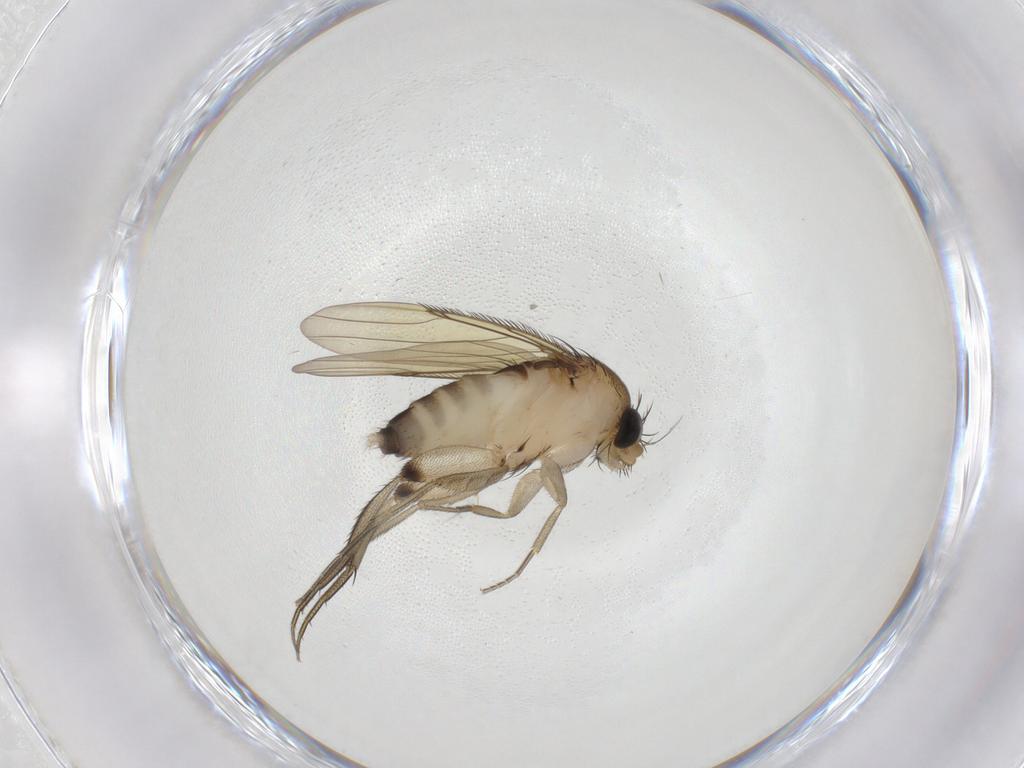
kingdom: Animalia
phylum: Arthropoda
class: Insecta
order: Diptera
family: Phoridae
